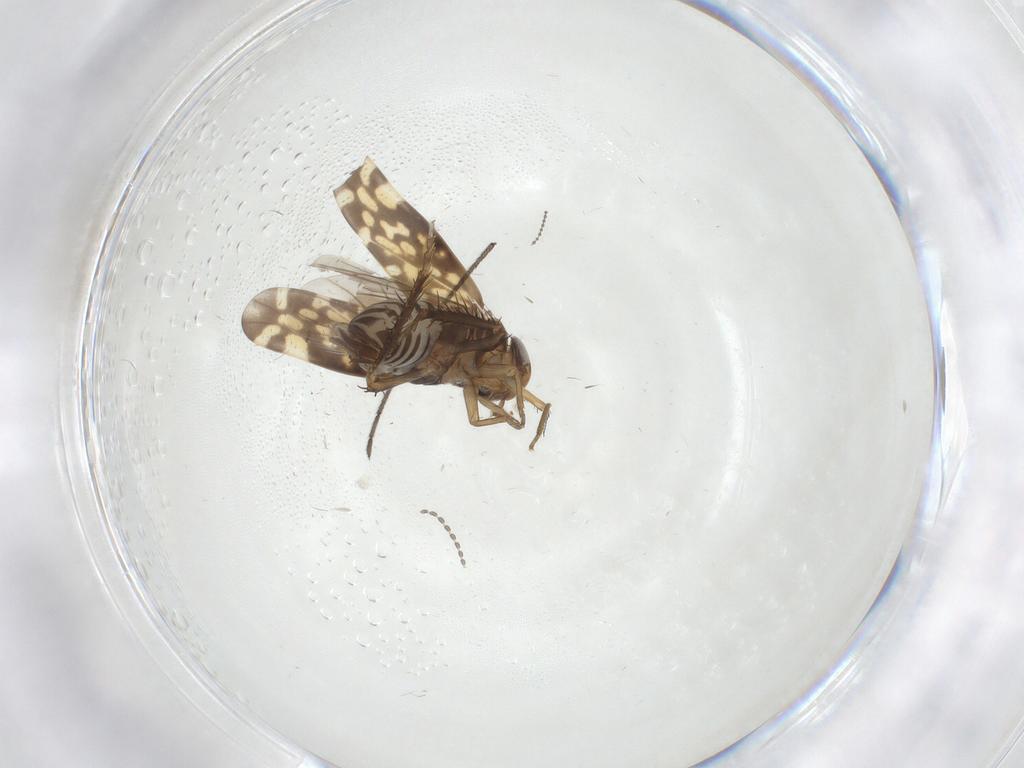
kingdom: Animalia
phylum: Arthropoda
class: Insecta
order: Hemiptera
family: Cicadellidae
